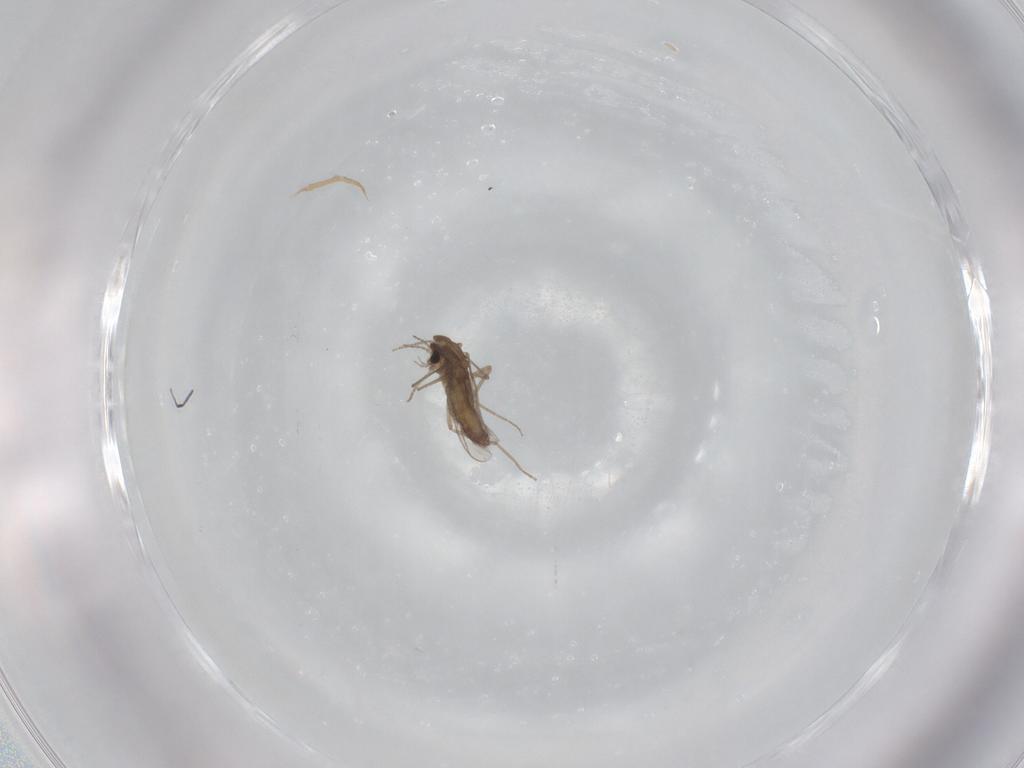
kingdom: Animalia
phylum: Arthropoda
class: Insecta
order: Diptera
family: Chironomidae
